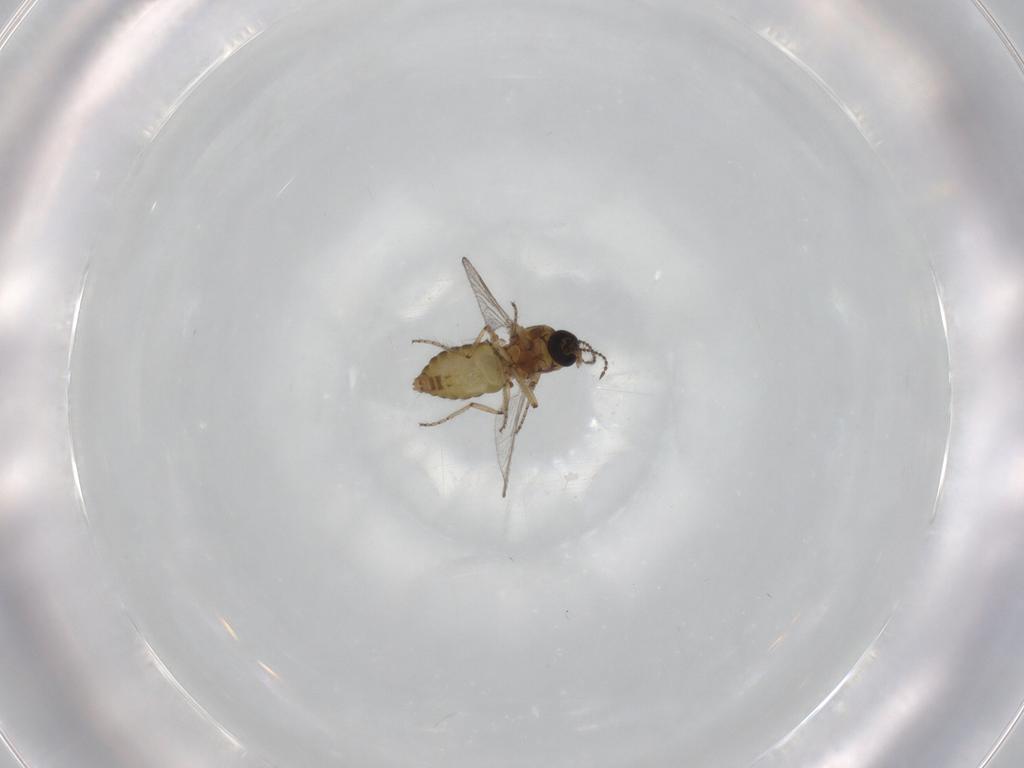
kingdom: Animalia
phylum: Arthropoda
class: Insecta
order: Diptera
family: Ceratopogonidae
